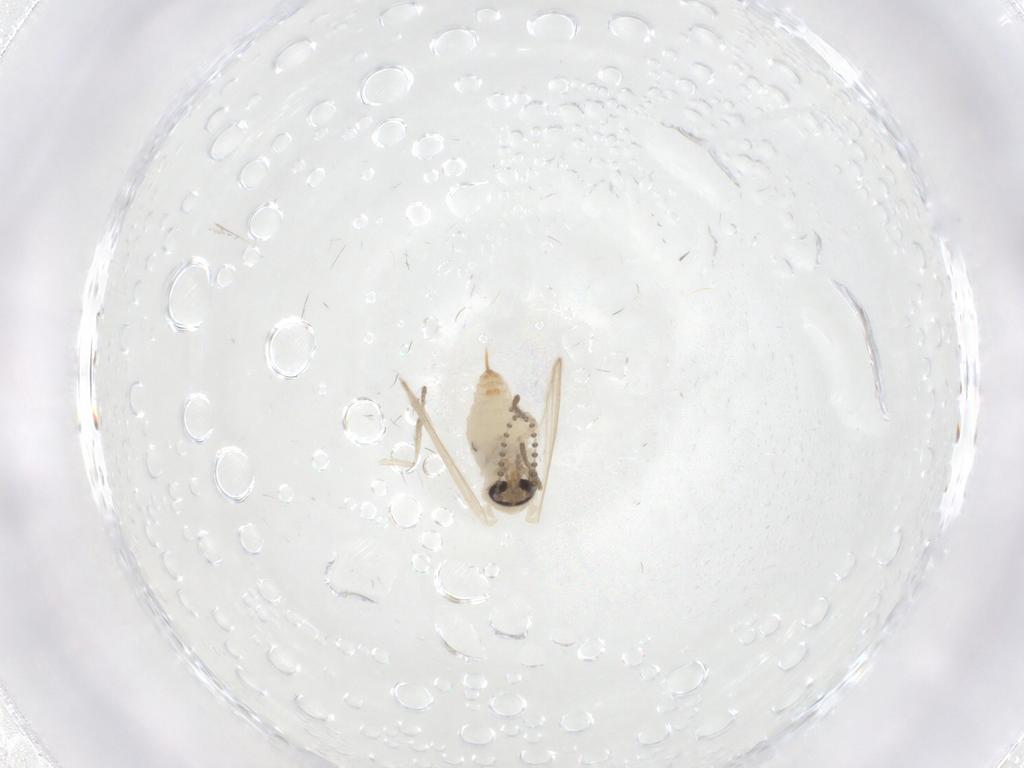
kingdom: Animalia
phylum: Arthropoda
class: Insecta
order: Diptera
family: Psychodidae
